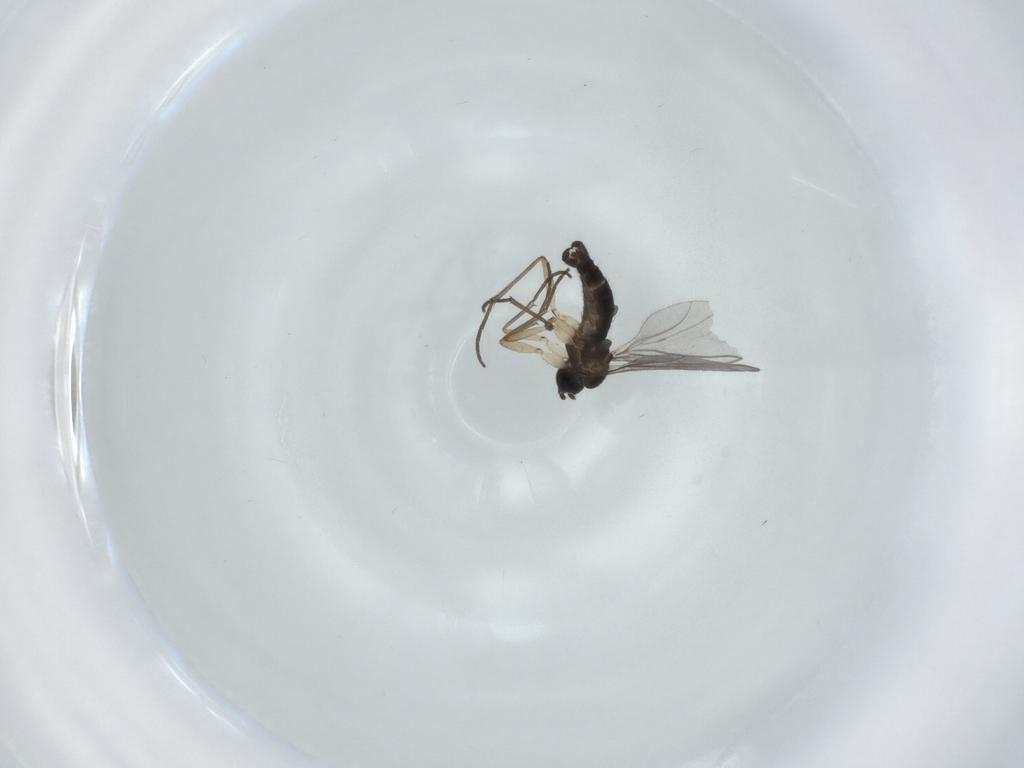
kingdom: Animalia
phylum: Arthropoda
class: Insecta
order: Diptera
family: Sciaridae
